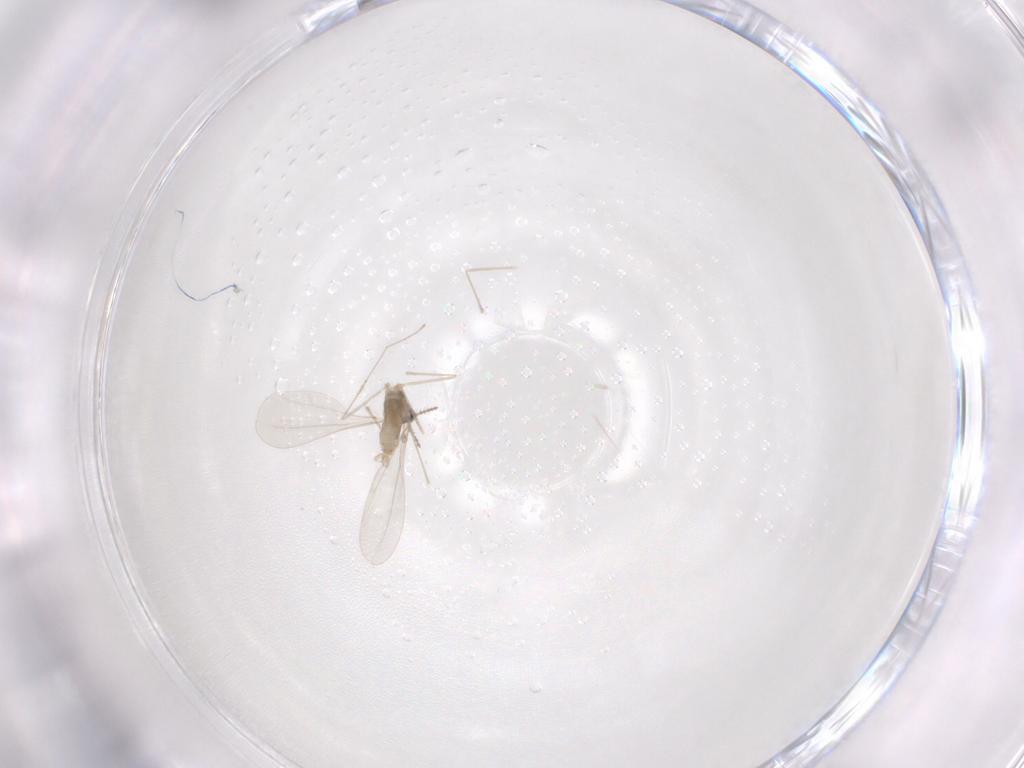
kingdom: Animalia
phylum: Arthropoda
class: Insecta
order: Diptera
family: Cecidomyiidae
